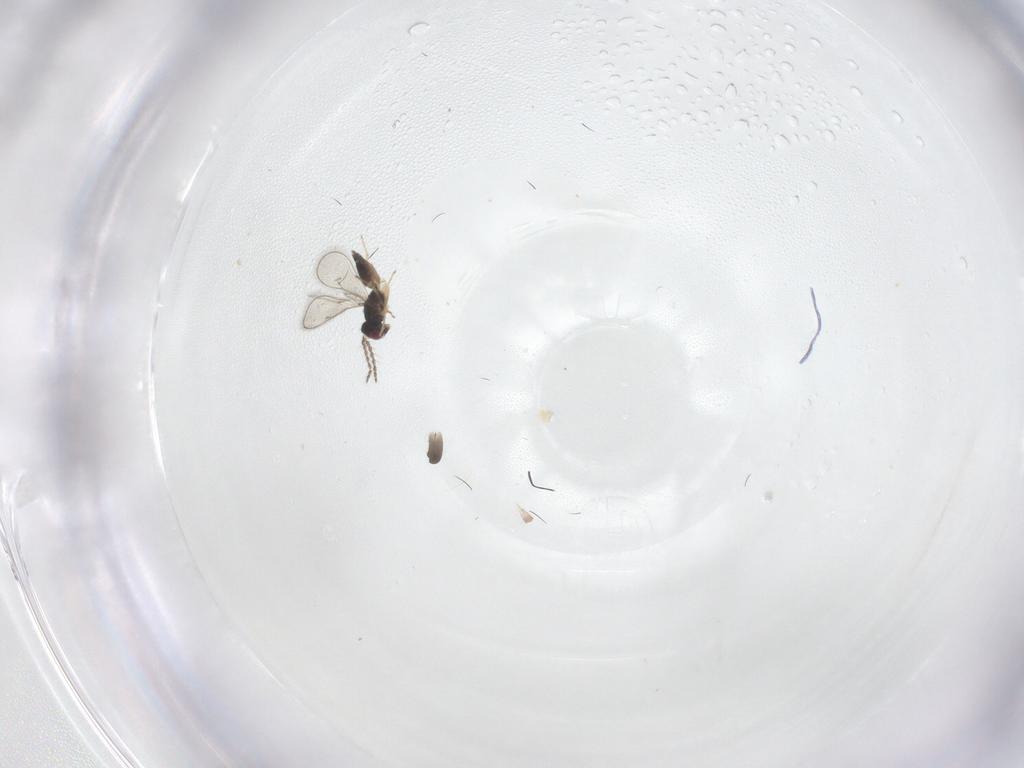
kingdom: Animalia
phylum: Arthropoda
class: Insecta
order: Hymenoptera
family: Eulophidae
